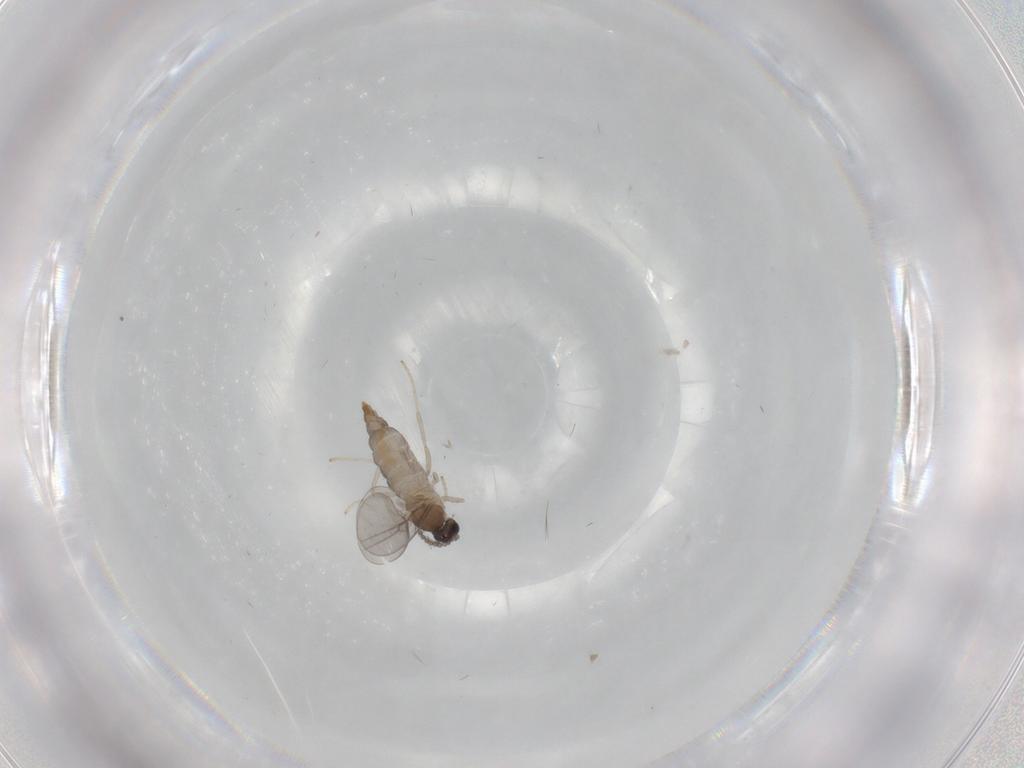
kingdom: Animalia
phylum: Arthropoda
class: Insecta
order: Diptera
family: Cecidomyiidae
